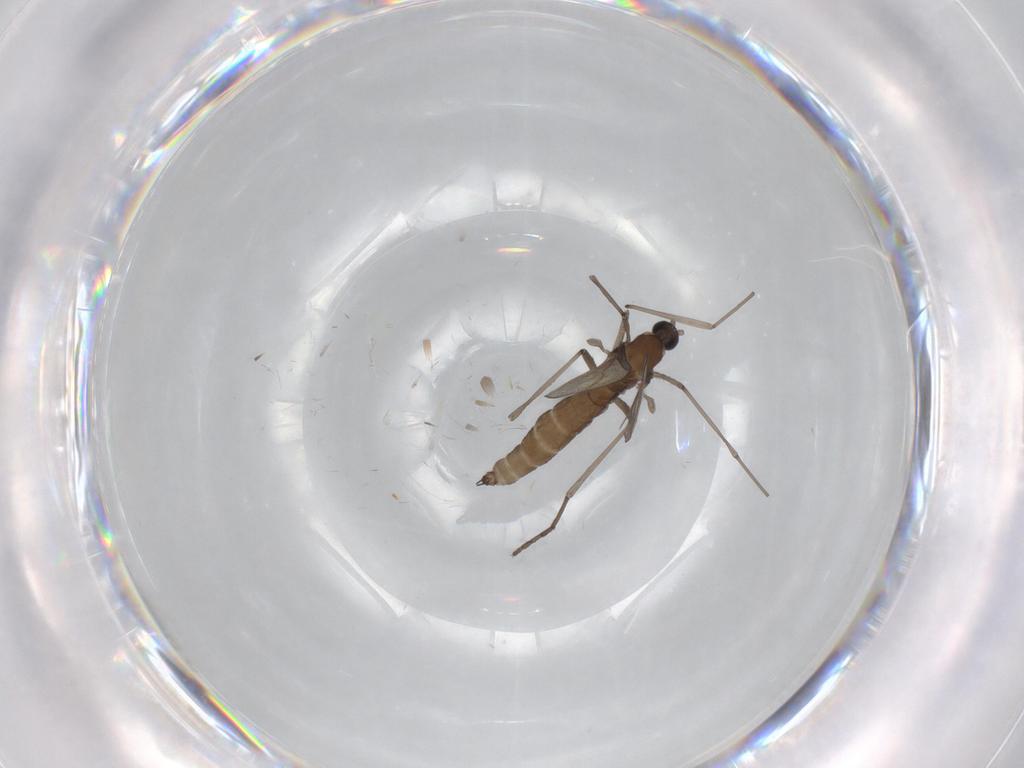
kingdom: Animalia
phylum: Arthropoda
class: Insecta
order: Diptera
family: Cecidomyiidae
